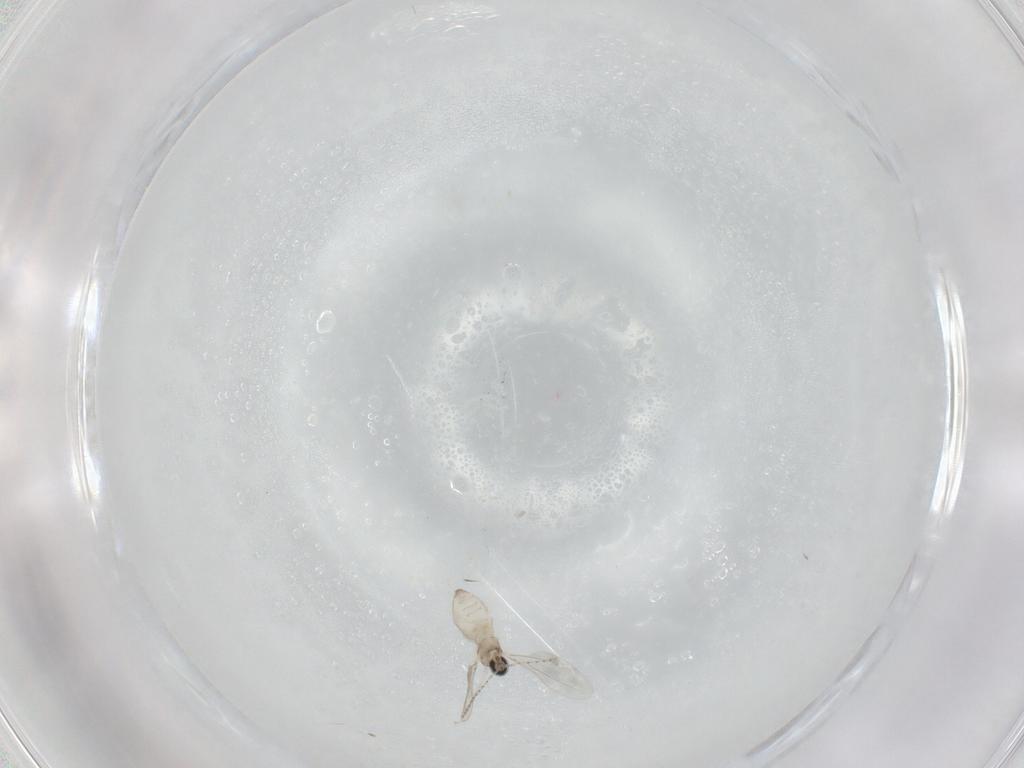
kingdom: Animalia
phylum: Arthropoda
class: Insecta
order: Diptera
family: Cecidomyiidae
